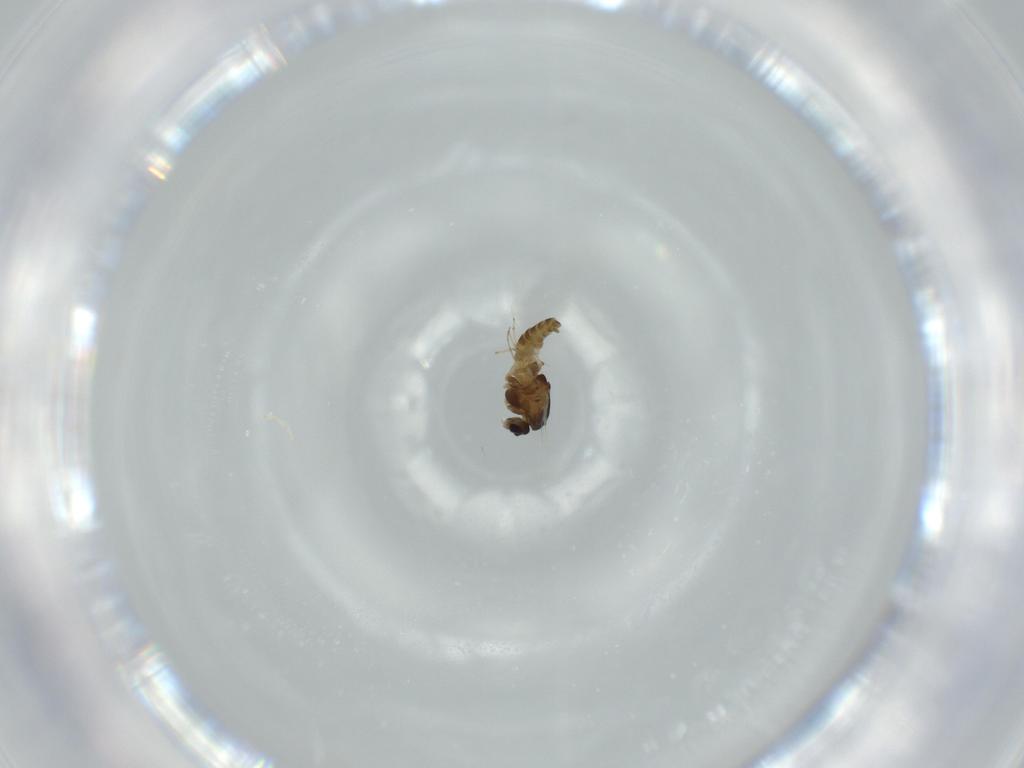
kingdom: Animalia
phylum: Arthropoda
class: Insecta
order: Diptera
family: Chironomidae
